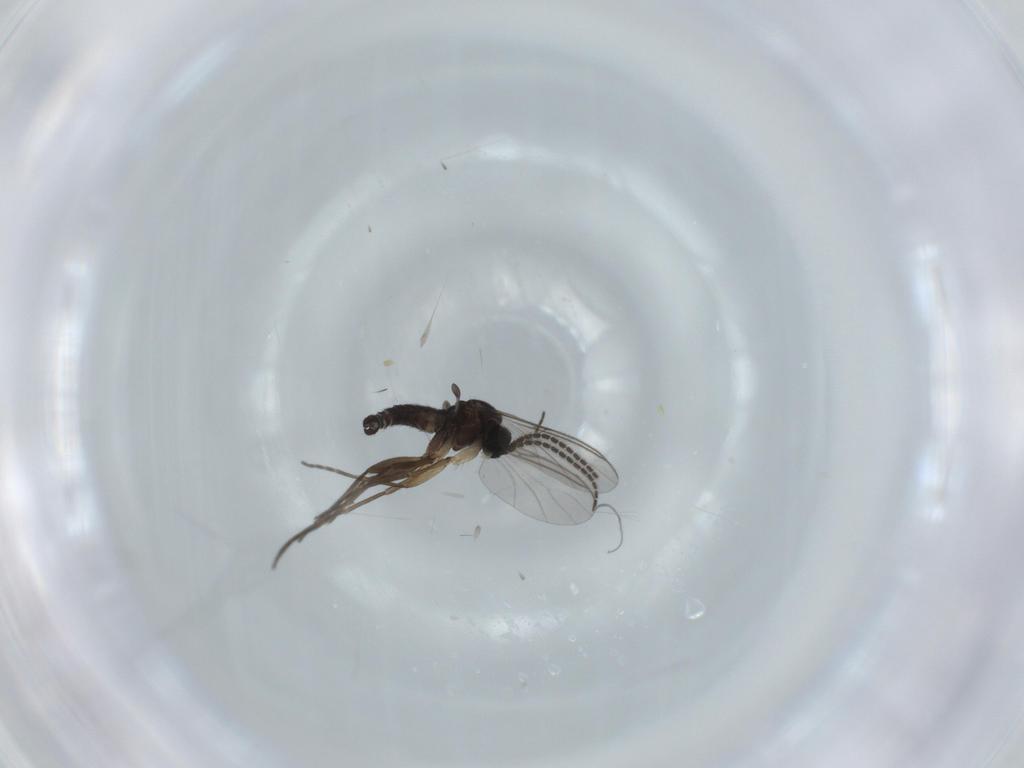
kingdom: Animalia
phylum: Arthropoda
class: Insecta
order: Diptera
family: Sciaridae
